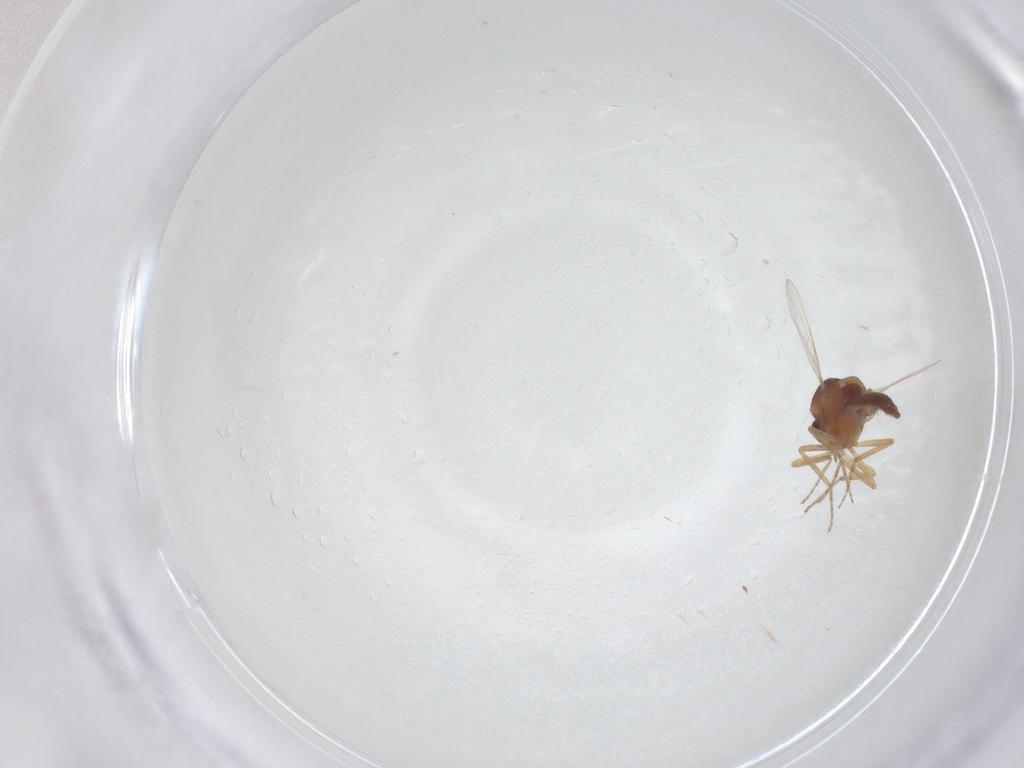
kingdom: Animalia
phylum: Arthropoda
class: Insecta
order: Diptera
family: Ceratopogonidae
